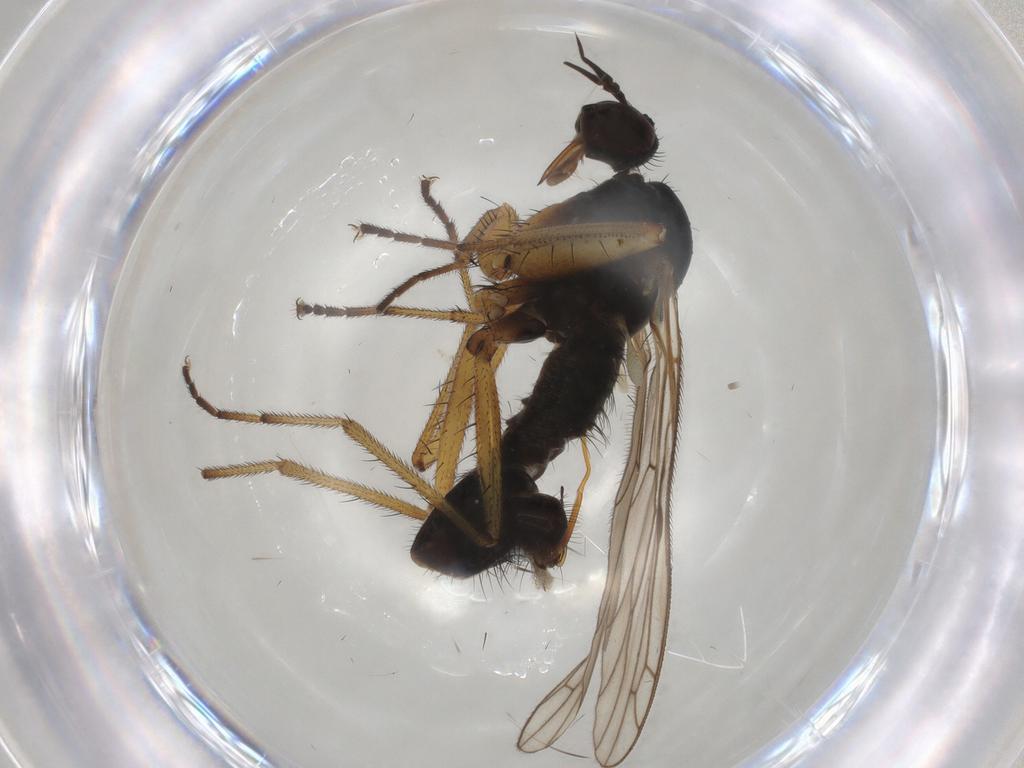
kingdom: Animalia
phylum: Arthropoda
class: Insecta
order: Diptera
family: Empididae
